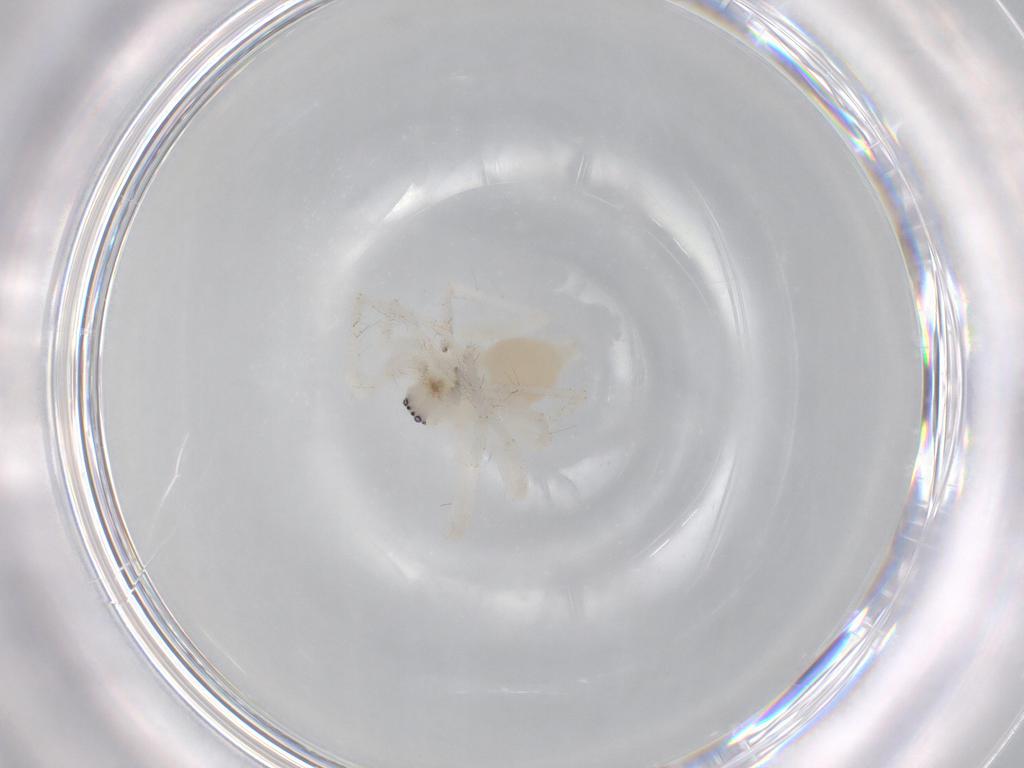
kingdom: Animalia
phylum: Arthropoda
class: Arachnida
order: Araneae
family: Anyphaenidae
